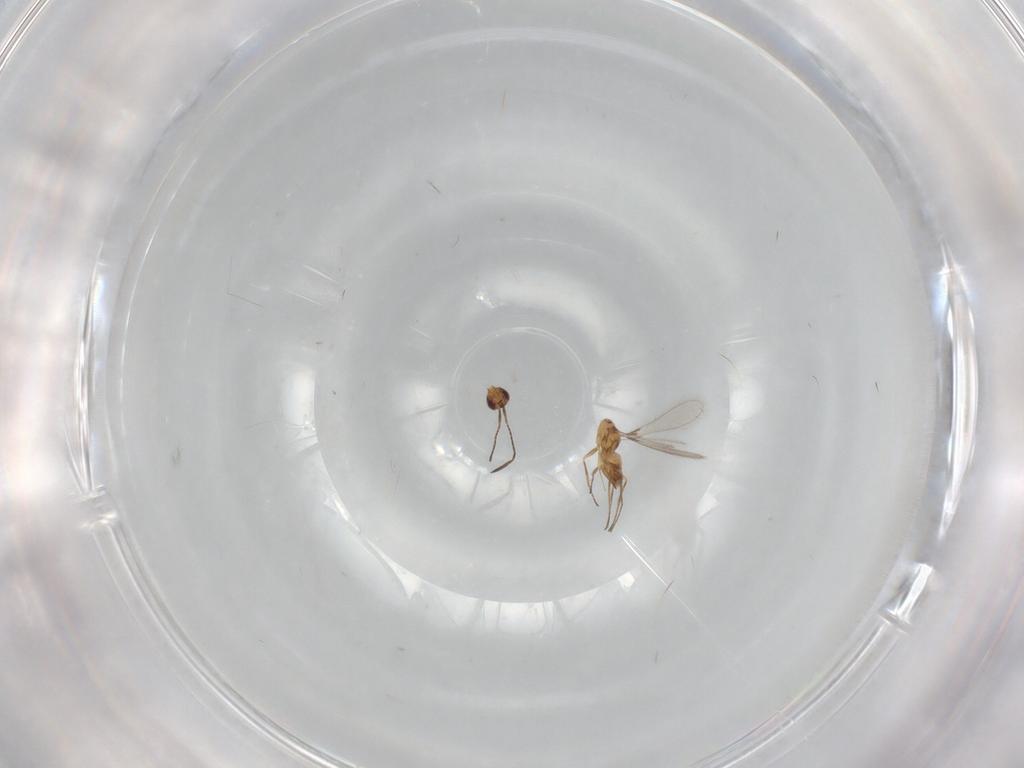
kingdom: Animalia
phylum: Arthropoda
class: Insecta
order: Hymenoptera
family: Mymaridae
